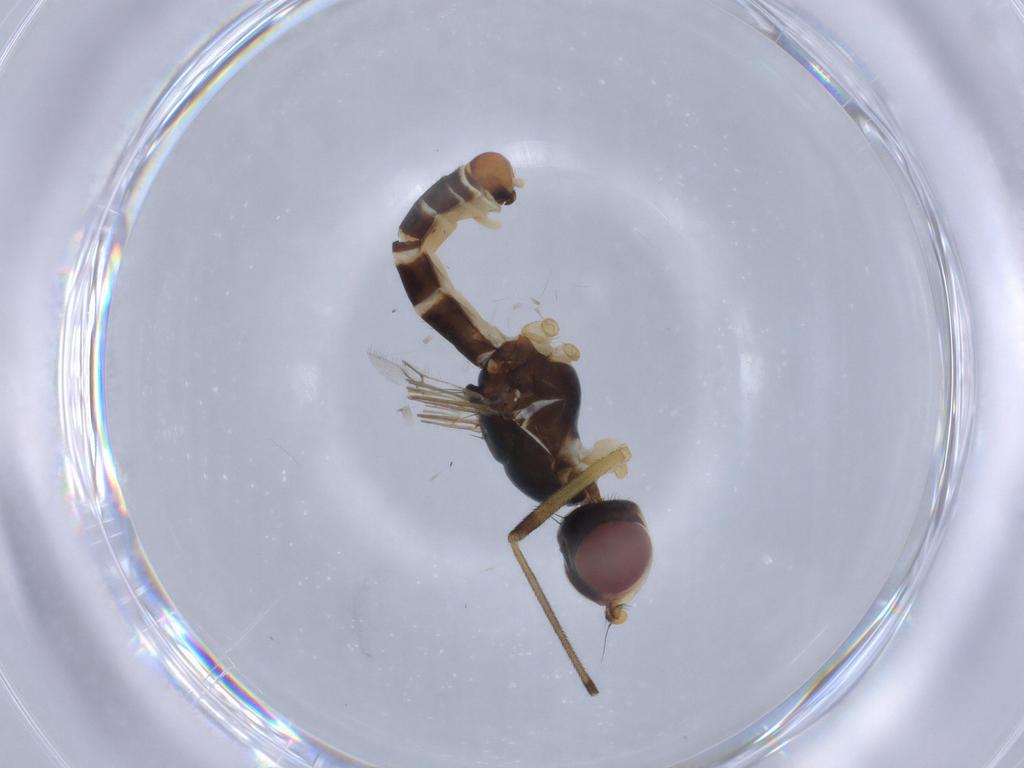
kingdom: Animalia
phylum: Arthropoda
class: Insecta
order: Diptera
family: Micropezidae
